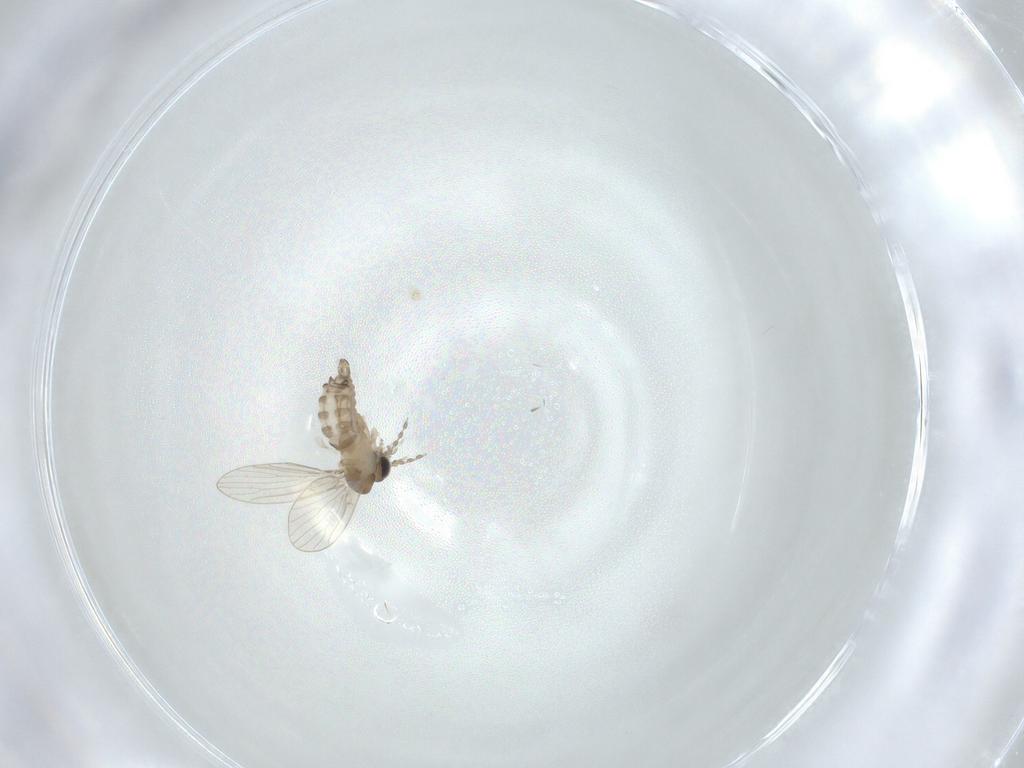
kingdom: Animalia
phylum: Arthropoda
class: Insecta
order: Diptera
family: Psychodidae
